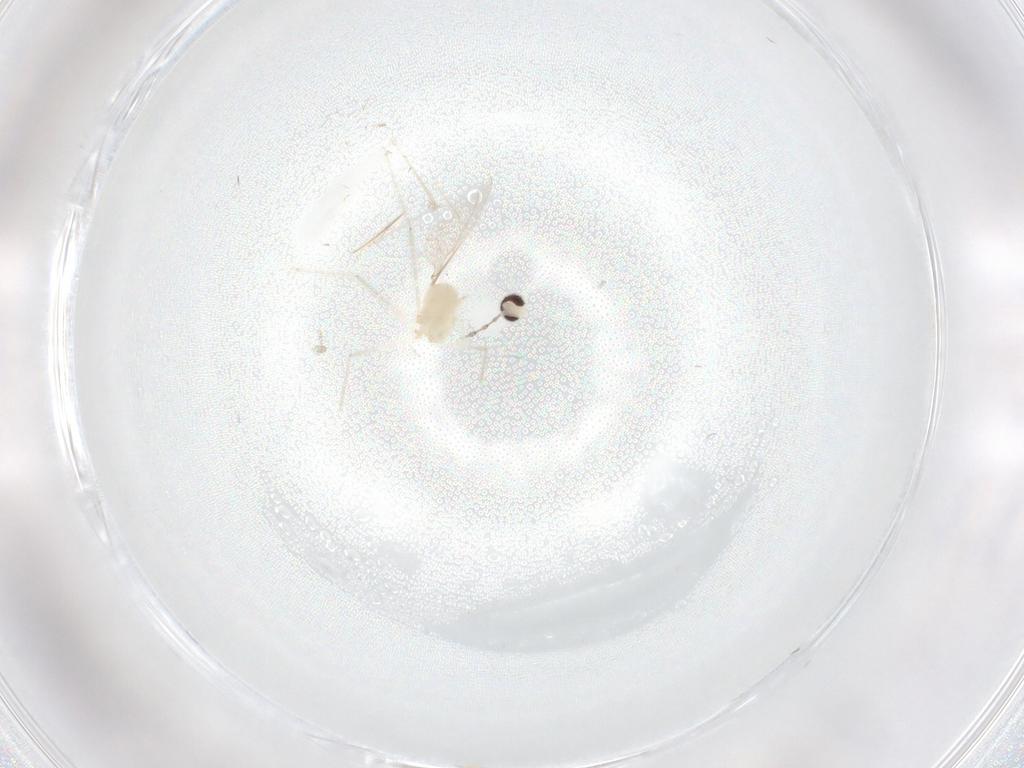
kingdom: Animalia
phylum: Arthropoda
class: Insecta
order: Diptera
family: Cecidomyiidae
